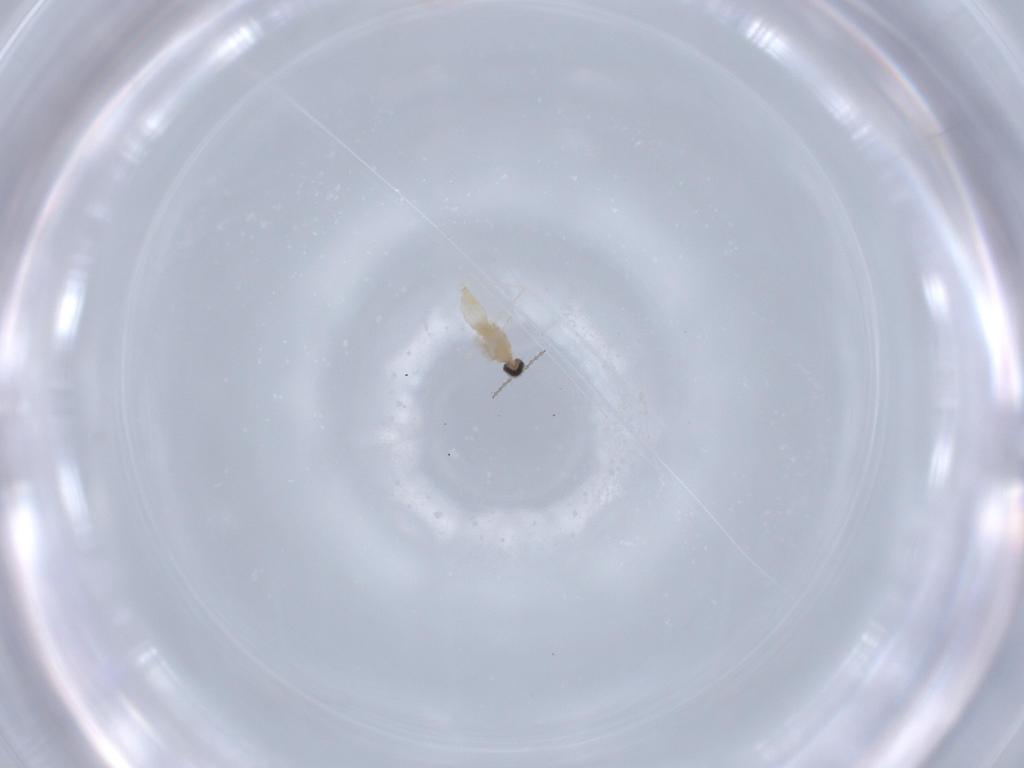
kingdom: Animalia
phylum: Arthropoda
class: Insecta
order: Diptera
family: Cecidomyiidae
